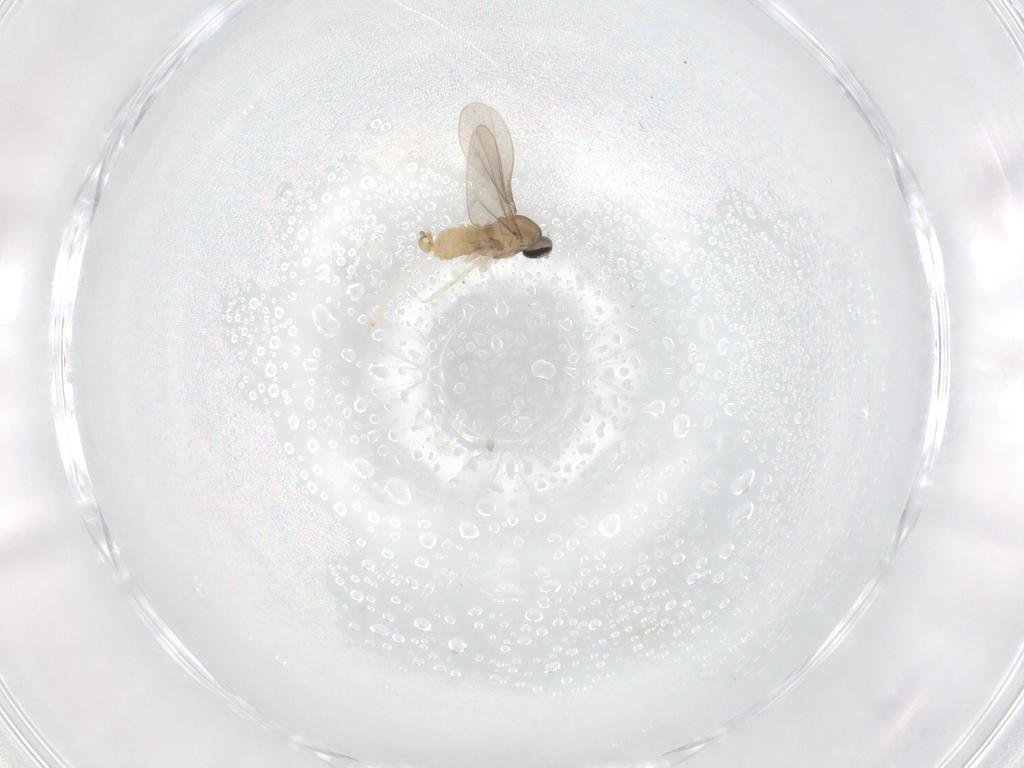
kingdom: Animalia
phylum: Arthropoda
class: Insecta
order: Diptera
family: Cecidomyiidae
